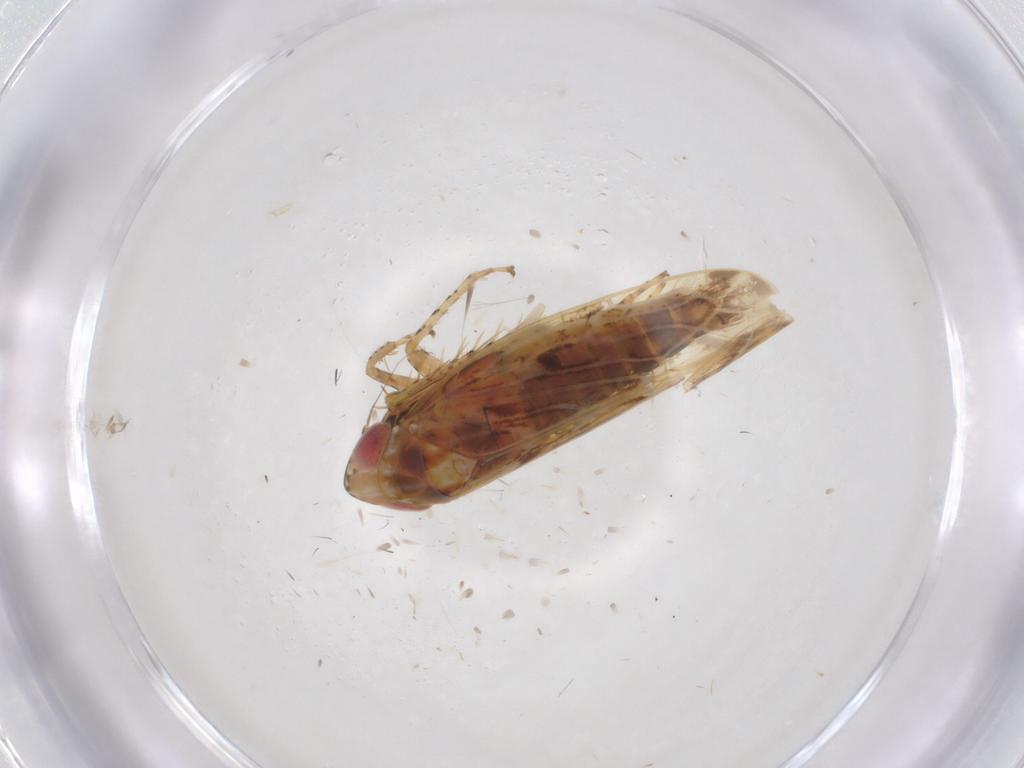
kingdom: Animalia
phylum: Arthropoda
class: Insecta
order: Hemiptera
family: Cicadellidae
